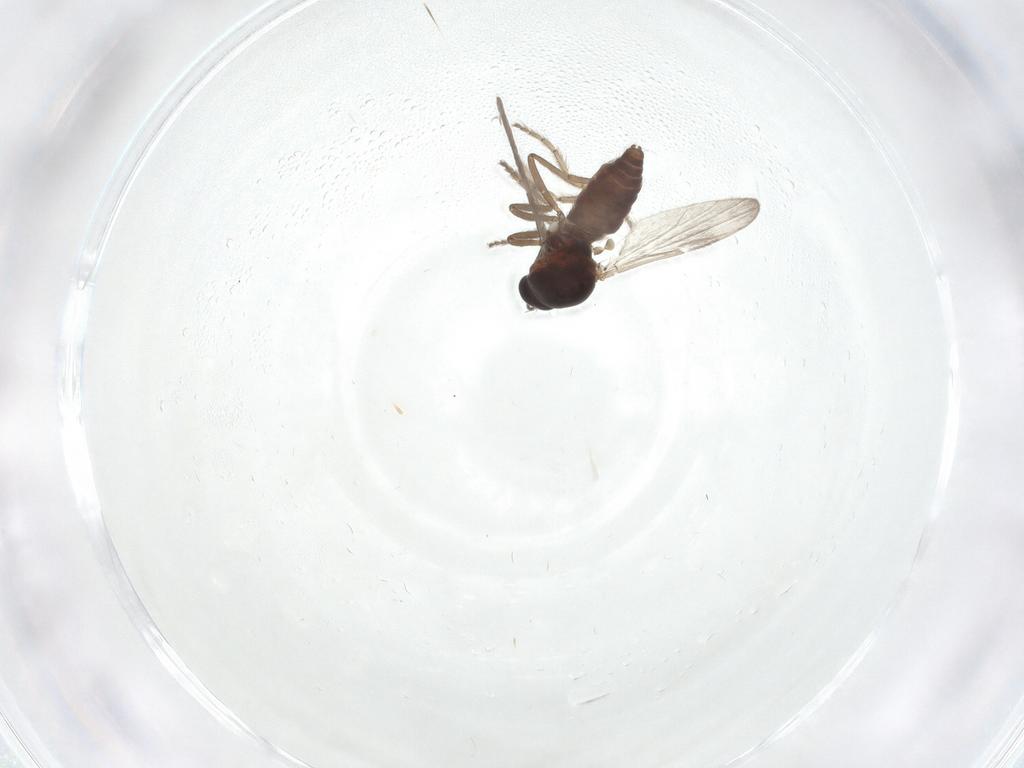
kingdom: Animalia
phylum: Arthropoda
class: Insecta
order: Diptera
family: Ceratopogonidae
